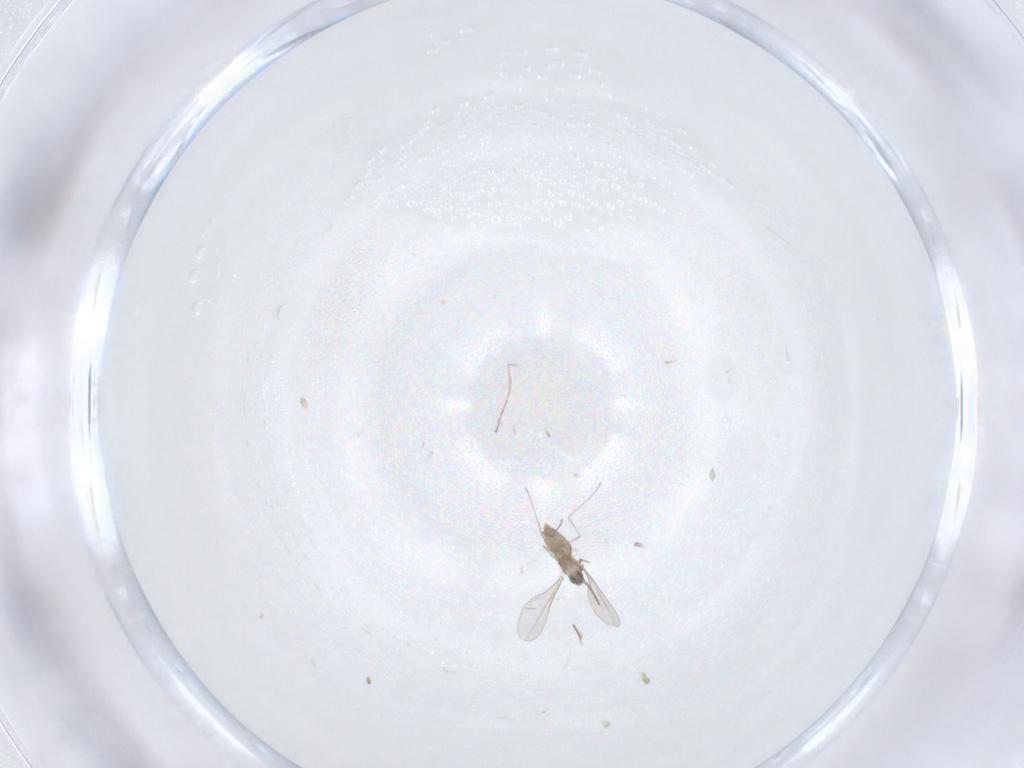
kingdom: Animalia
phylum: Arthropoda
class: Insecta
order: Diptera
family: Cecidomyiidae
